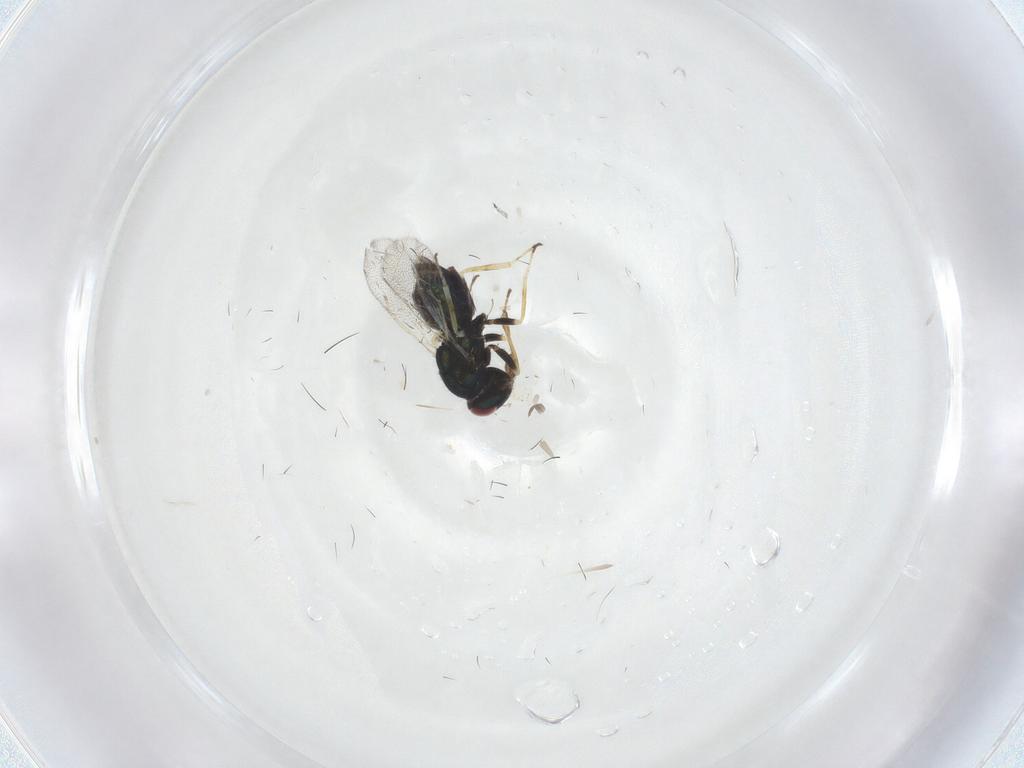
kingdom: Animalia
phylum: Arthropoda
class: Insecta
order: Hymenoptera
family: Eulophidae
